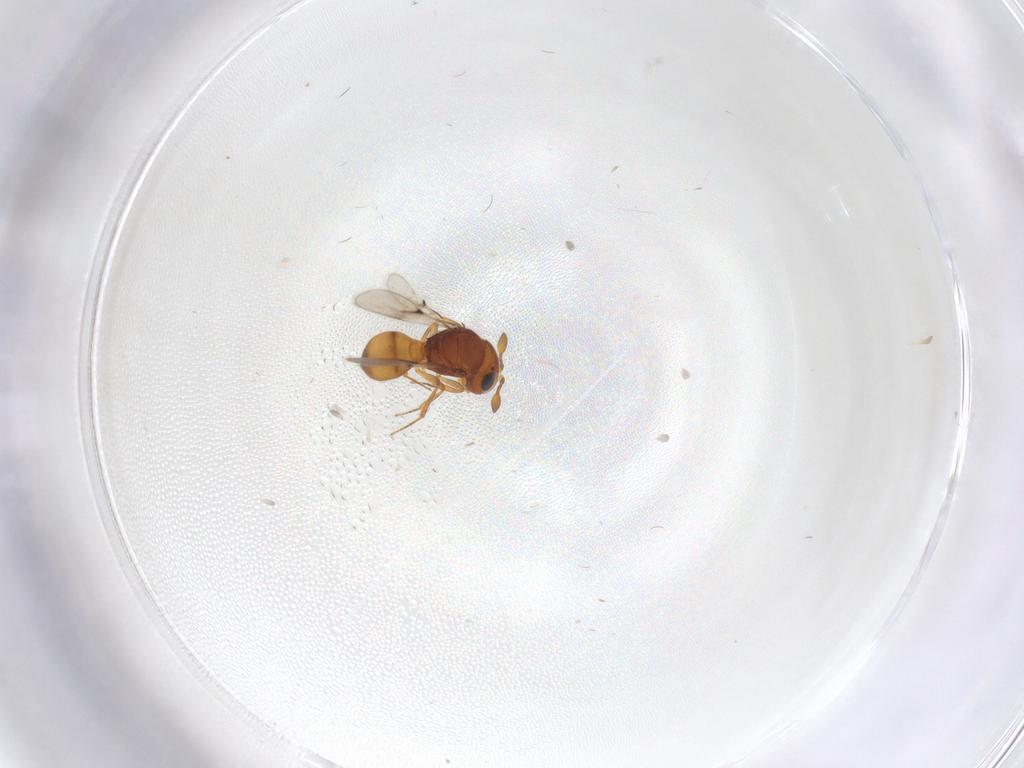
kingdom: Animalia
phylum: Arthropoda
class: Insecta
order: Hymenoptera
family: Scelionidae
